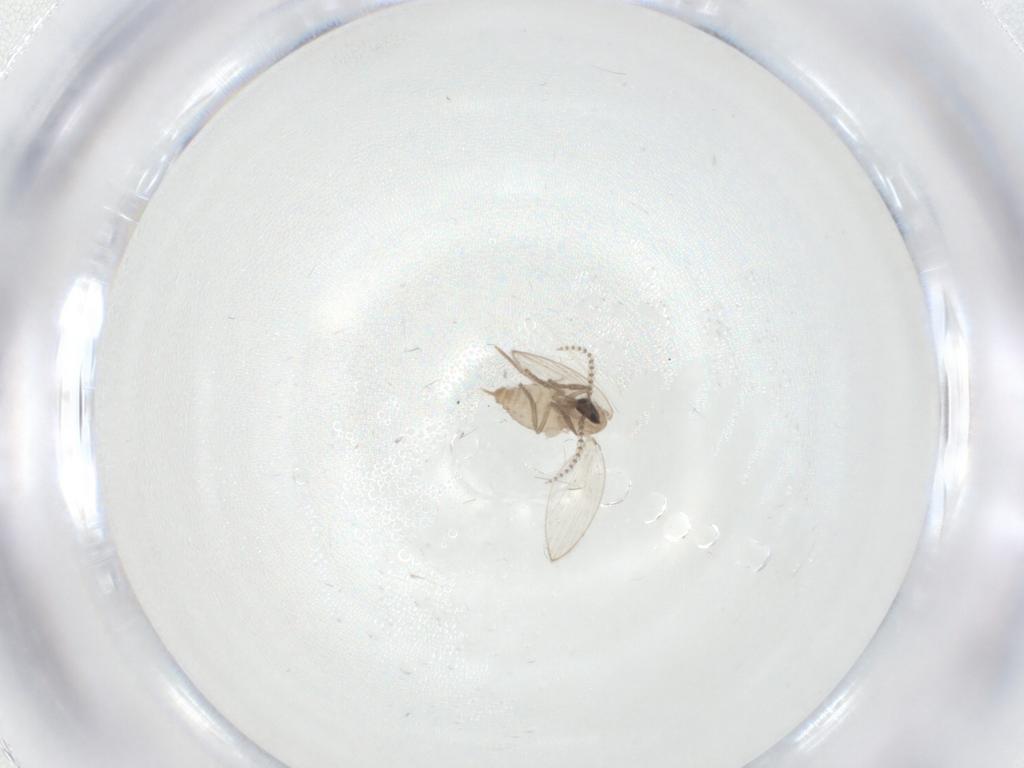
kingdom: Animalia
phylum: Arthropoda
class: Insecta
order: Diptera
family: Psychodidae
